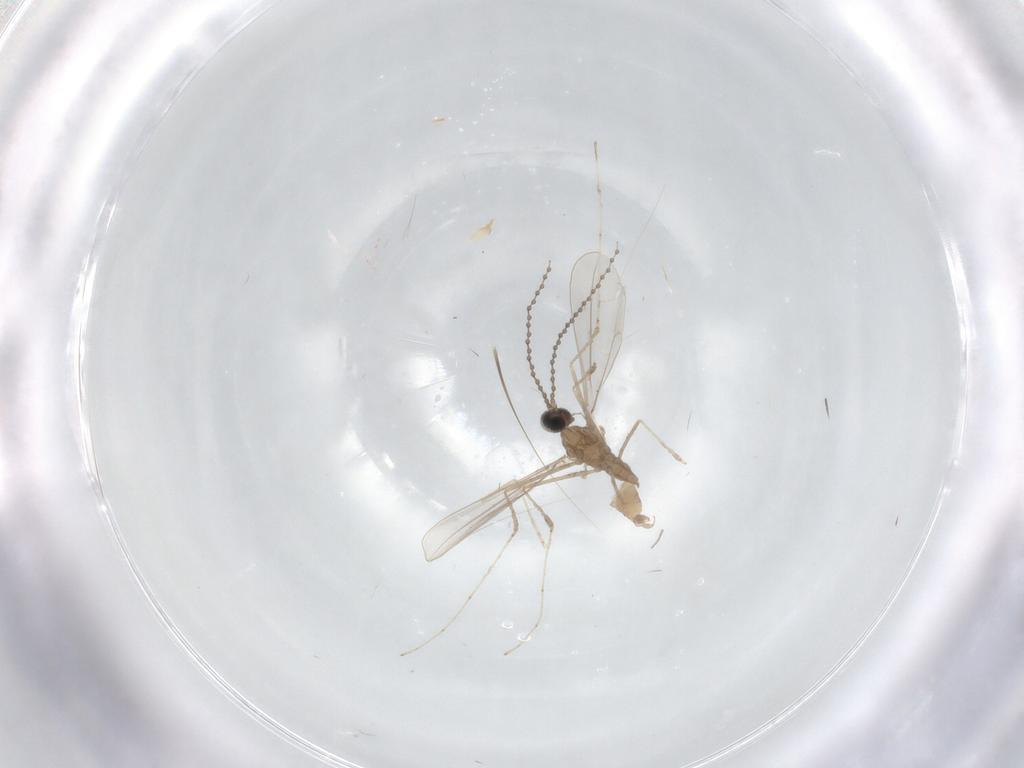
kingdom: Animalia
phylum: Arthropoda
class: Insecta
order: Diptera
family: Cecidomyiidae
